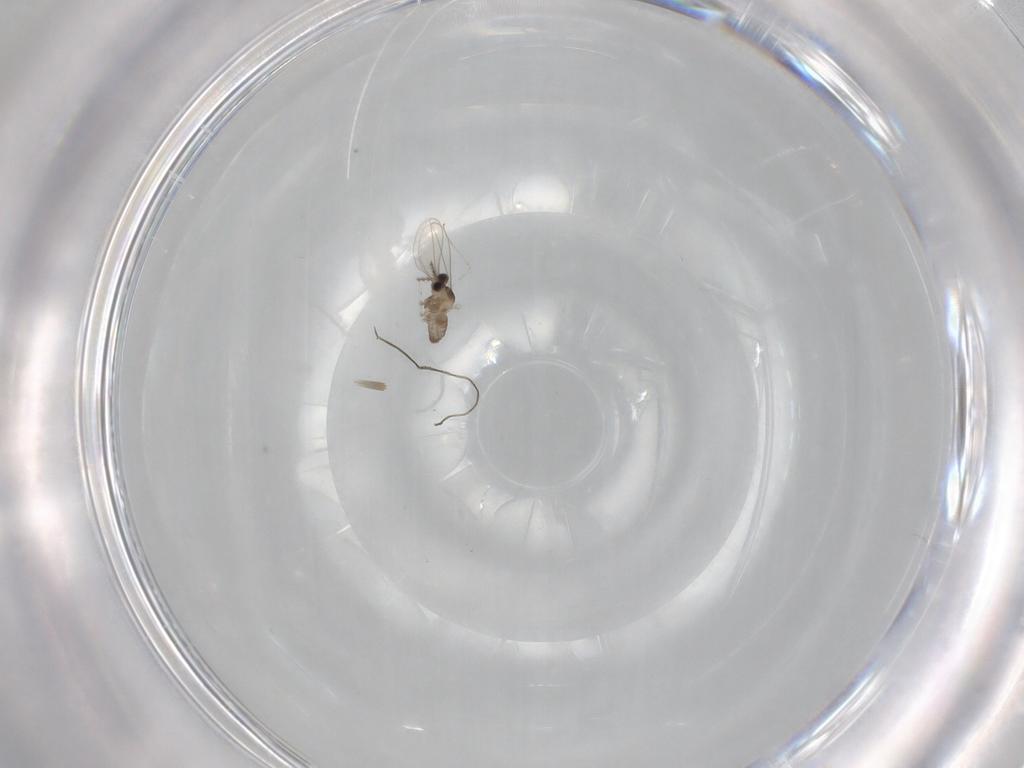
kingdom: Animalia
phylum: Arthropoda
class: Insecta
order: Diptera
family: Cecidomyiidae
